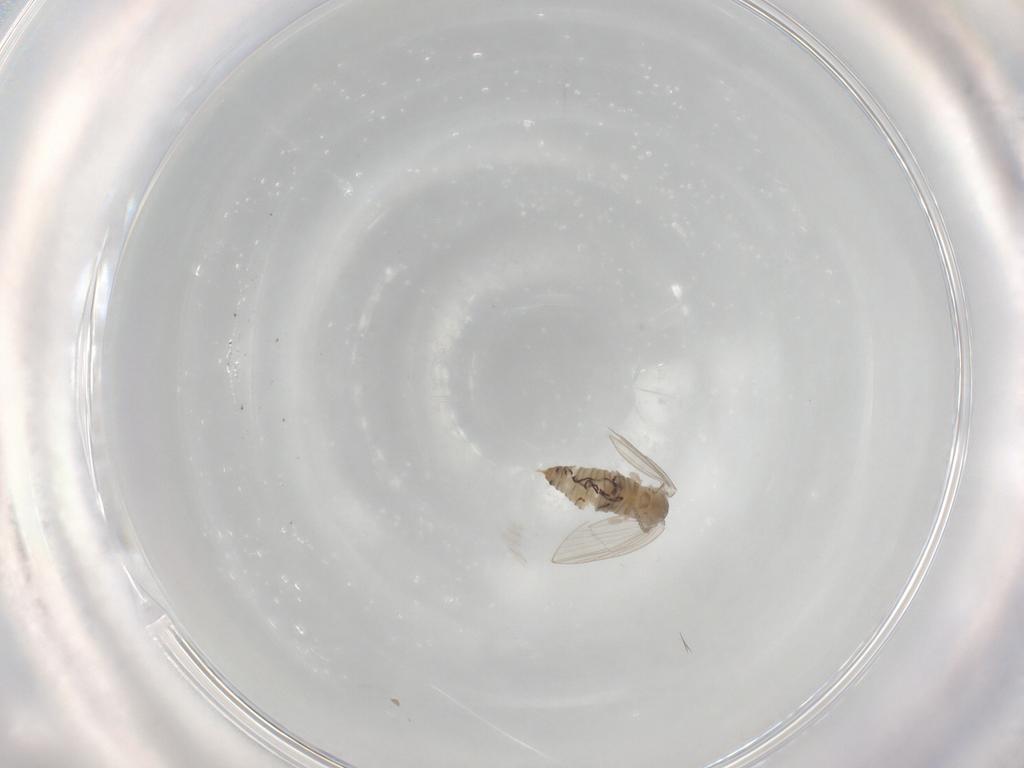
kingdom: Animalia
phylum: Arthropoda
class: Insecta
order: Diptera
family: Psychodidae
